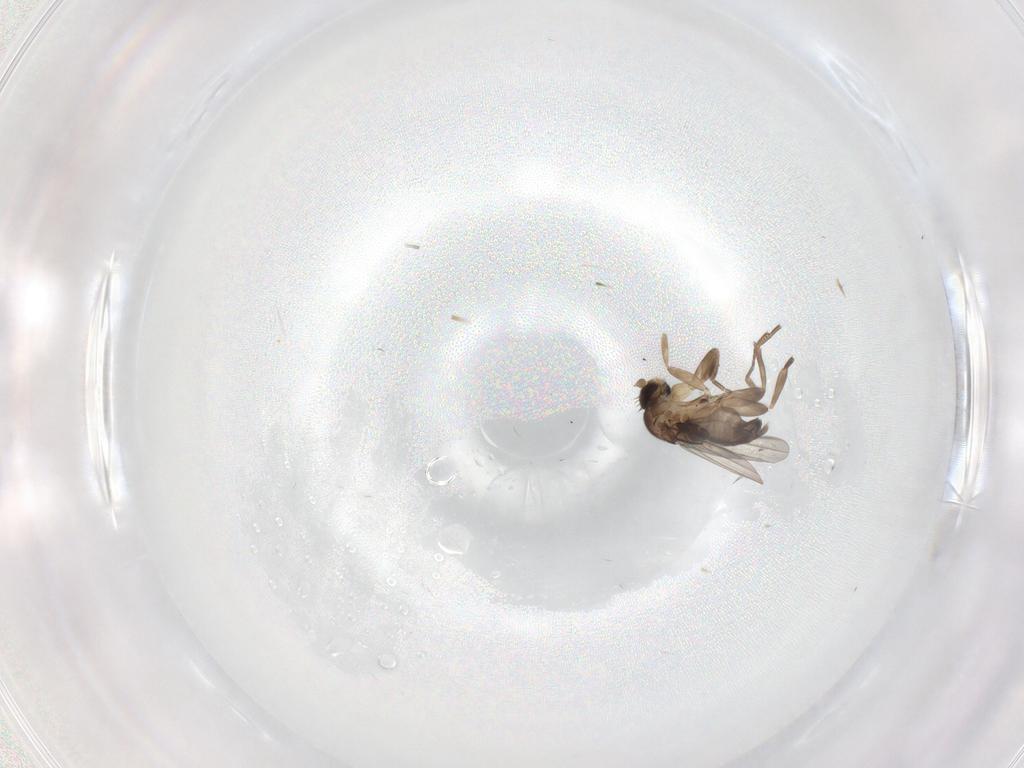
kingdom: Animalia
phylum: Arthropoda
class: Insecta
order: Diptera
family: Phoridae
